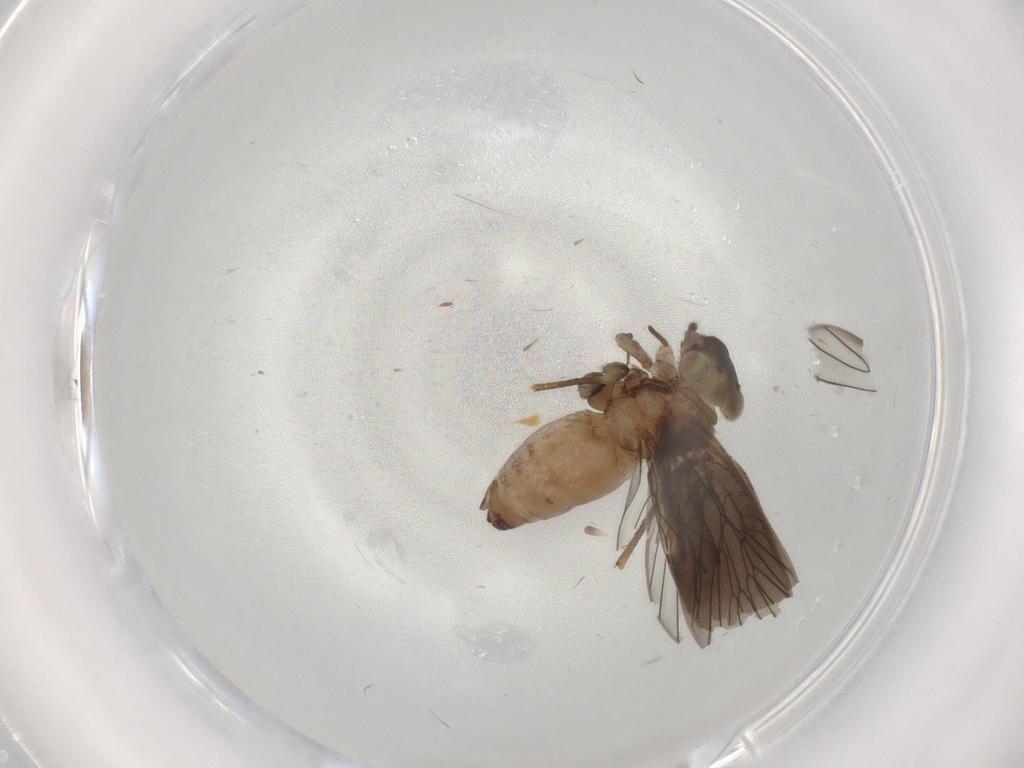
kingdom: Animalia
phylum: Arthropoda
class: Insecta
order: Psocodea
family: Lepidopsocidae
